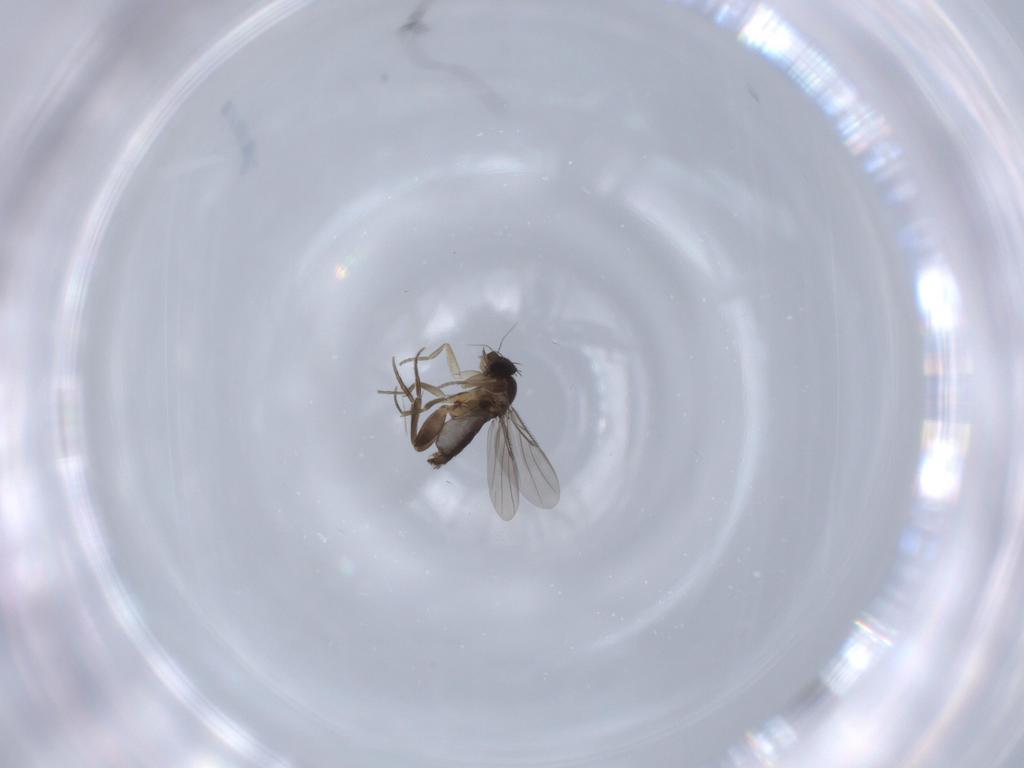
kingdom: Animalia
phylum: Arthropoda
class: Insecta
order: Diptera
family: Phoridae
